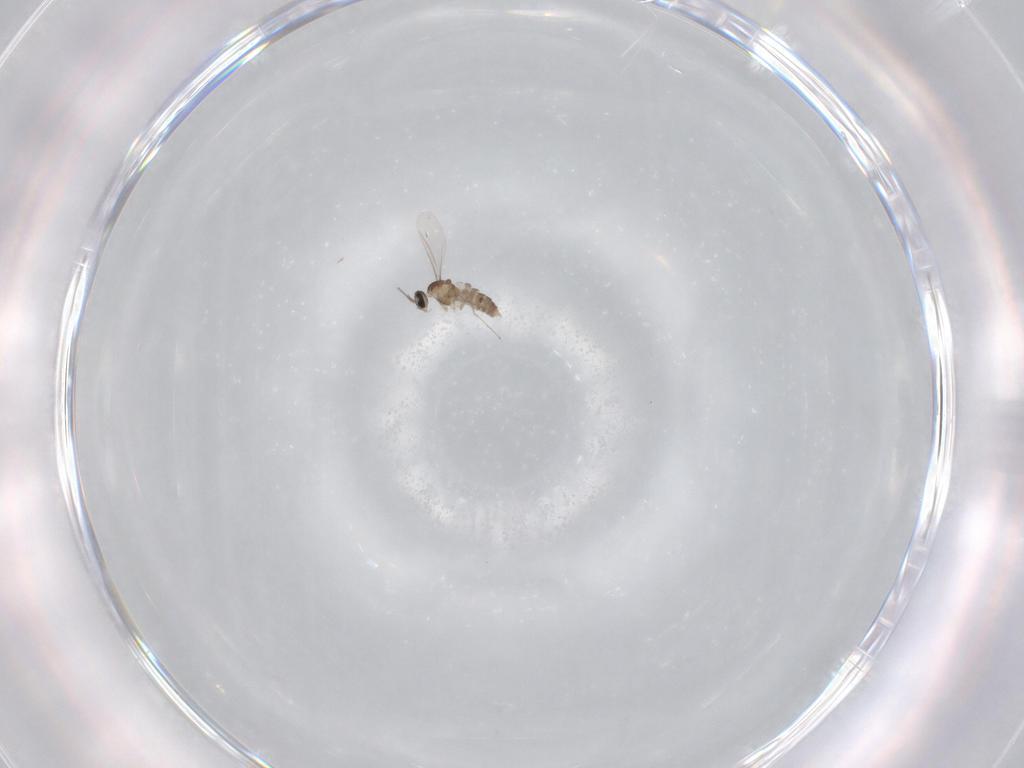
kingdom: Animalia
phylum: Arthropoda
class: Insecta
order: Diptera
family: Cecidomyiidae
